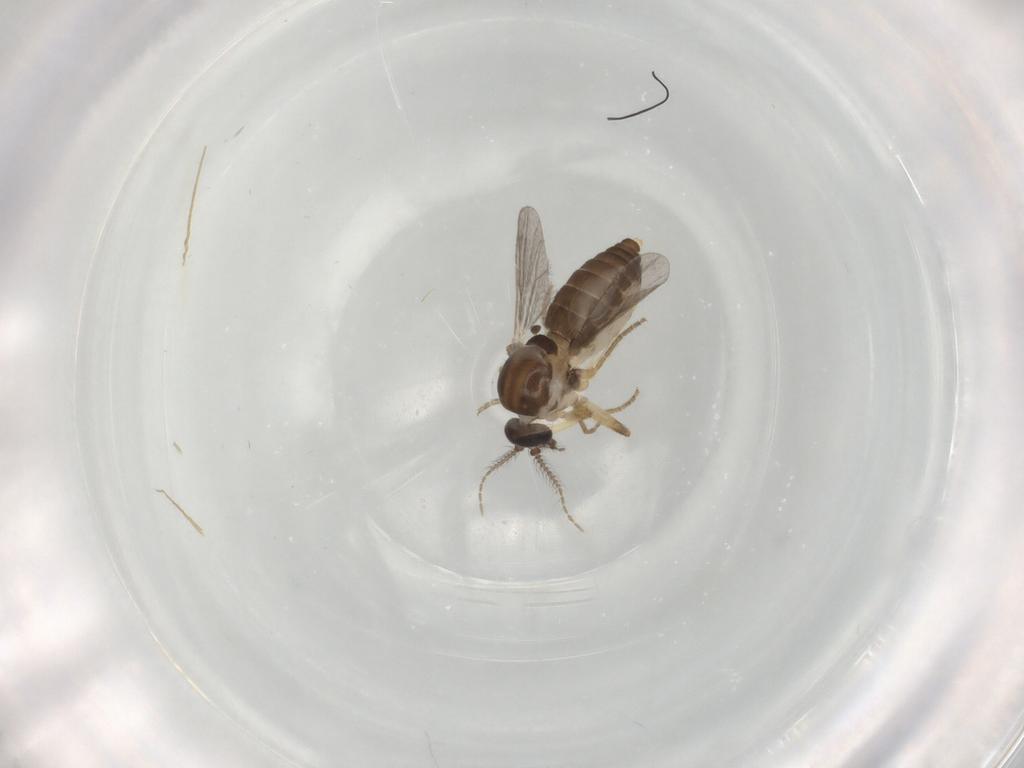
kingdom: Animalia
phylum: Arthropoda
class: Insecta
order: Diptera
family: Ceratopogonidae
